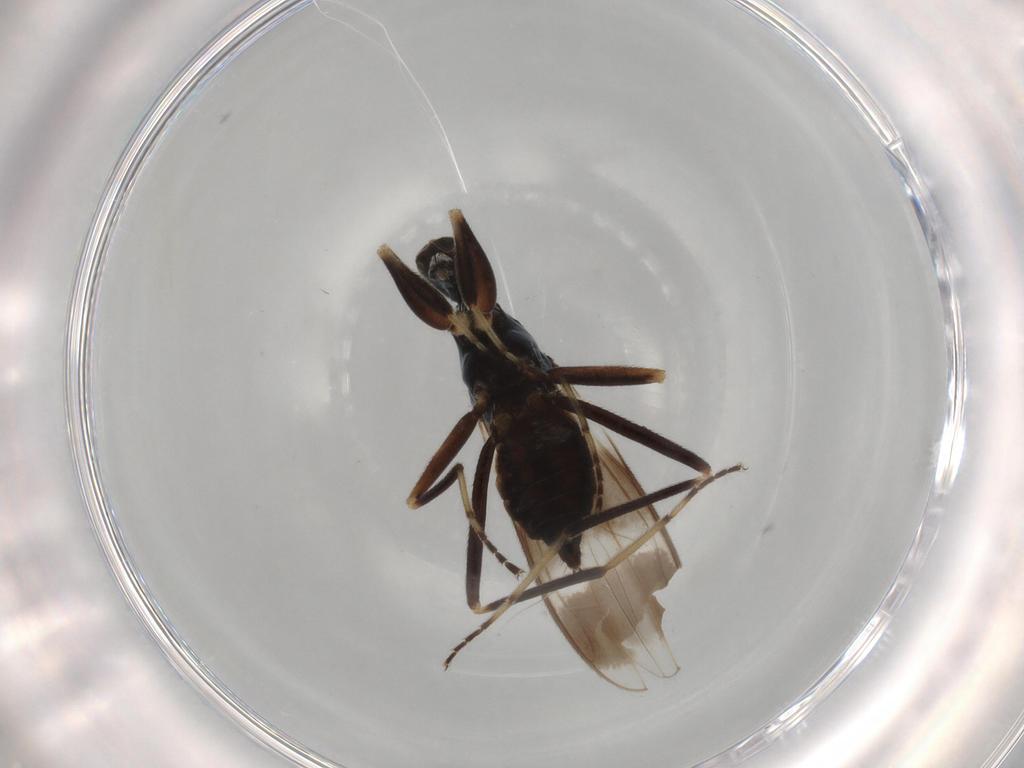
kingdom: Animalia
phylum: Arthropoda
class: Insecta
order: Diptera
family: Hybotidae
